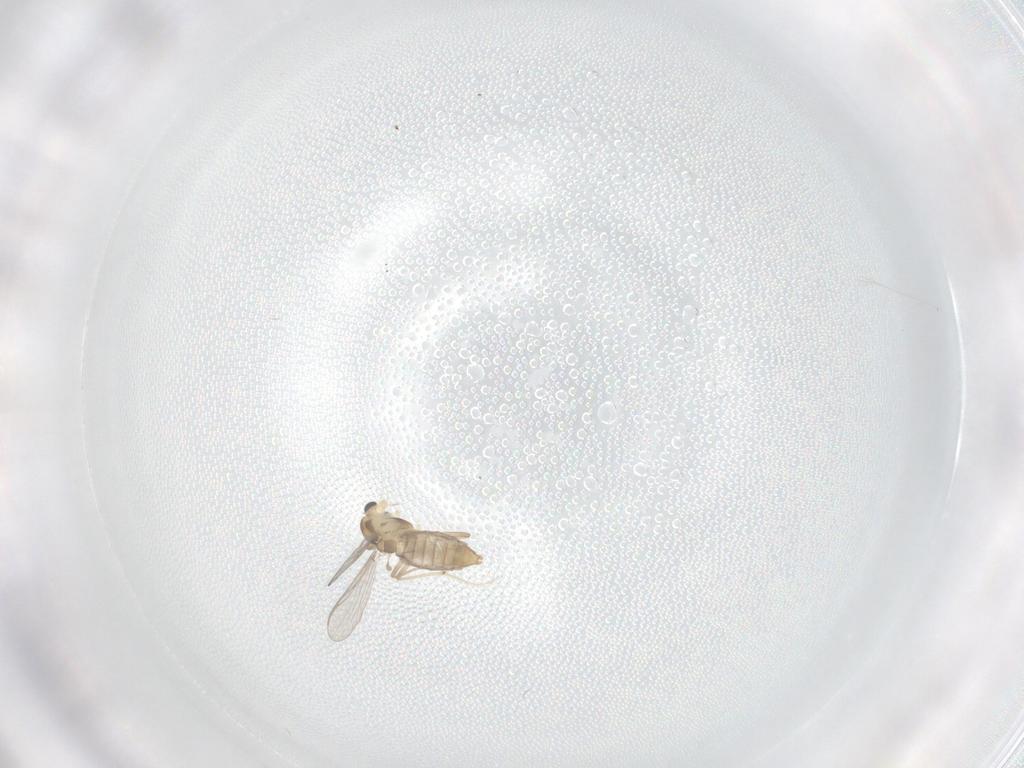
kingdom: Animalia
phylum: Arthropoda
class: Insecta
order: Diptera
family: Chironomidae
